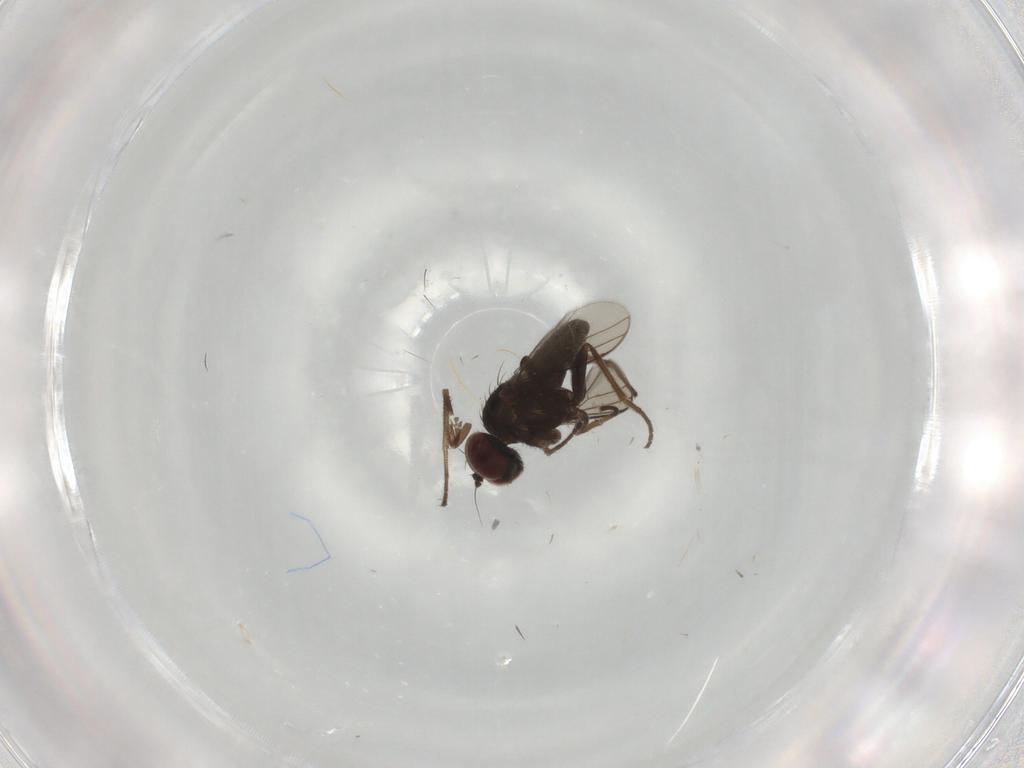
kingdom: Animalia
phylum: Arthropoda
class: Insecta
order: Diptera
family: Dolichopodidae
